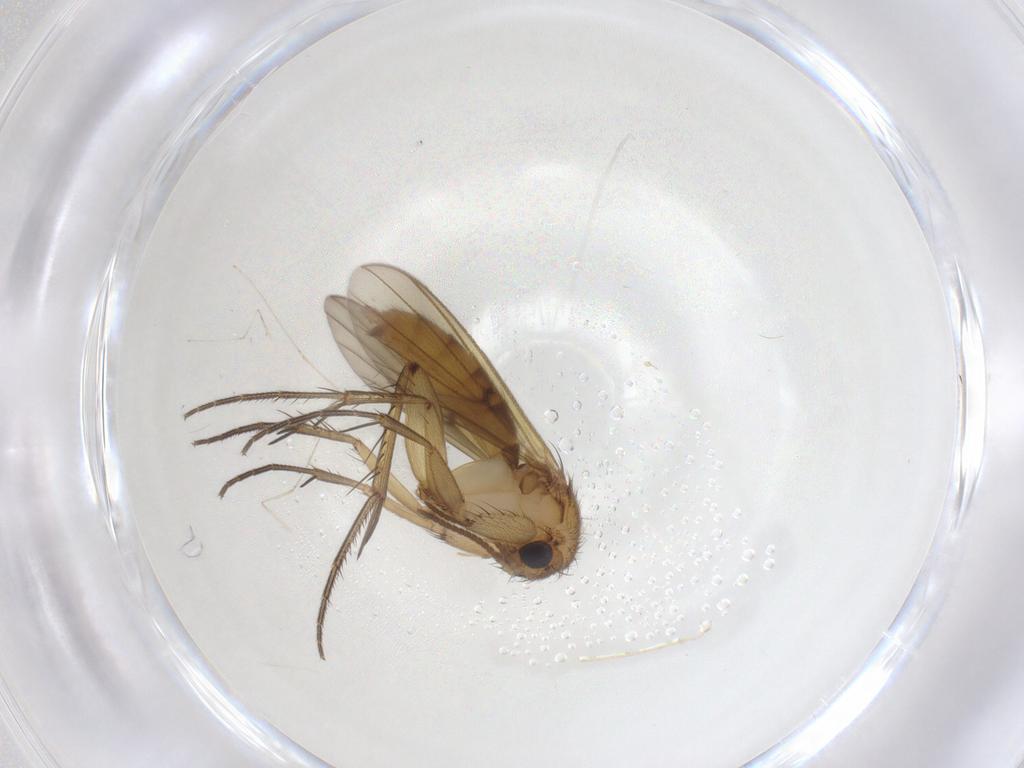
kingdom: Animalia
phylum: Arthropoda
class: Insecta
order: Diptera
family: Mycetophilidae
